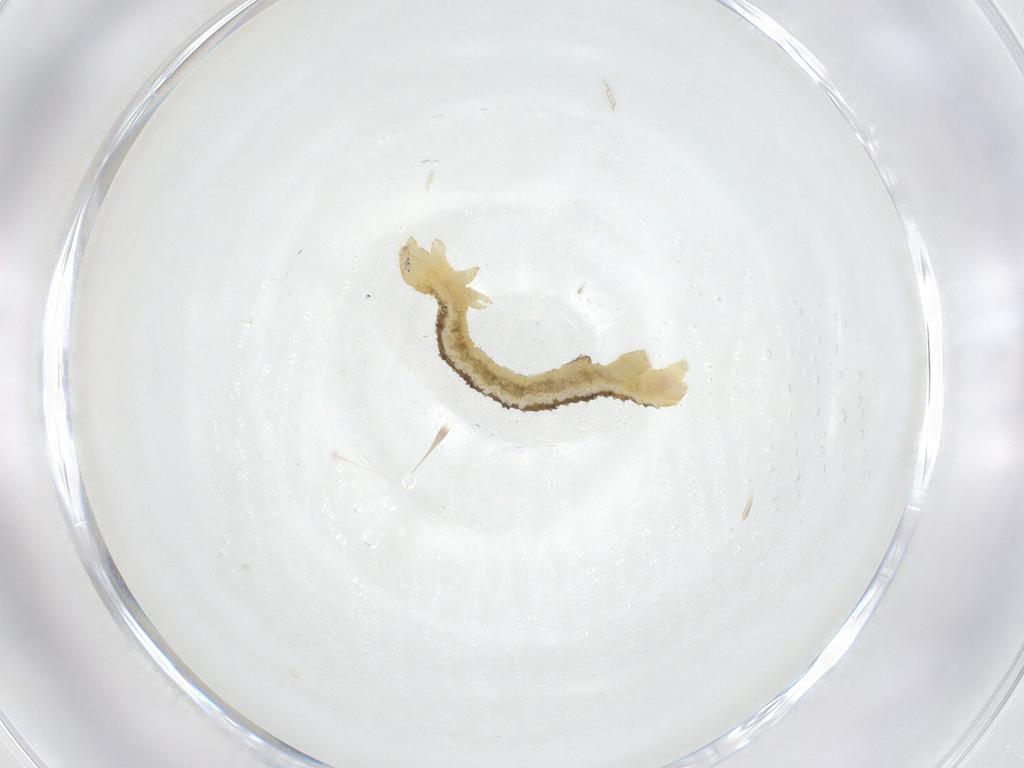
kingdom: Animalia
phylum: Arthropoda
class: Insecta
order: Lepidoptera
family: Geometridae
